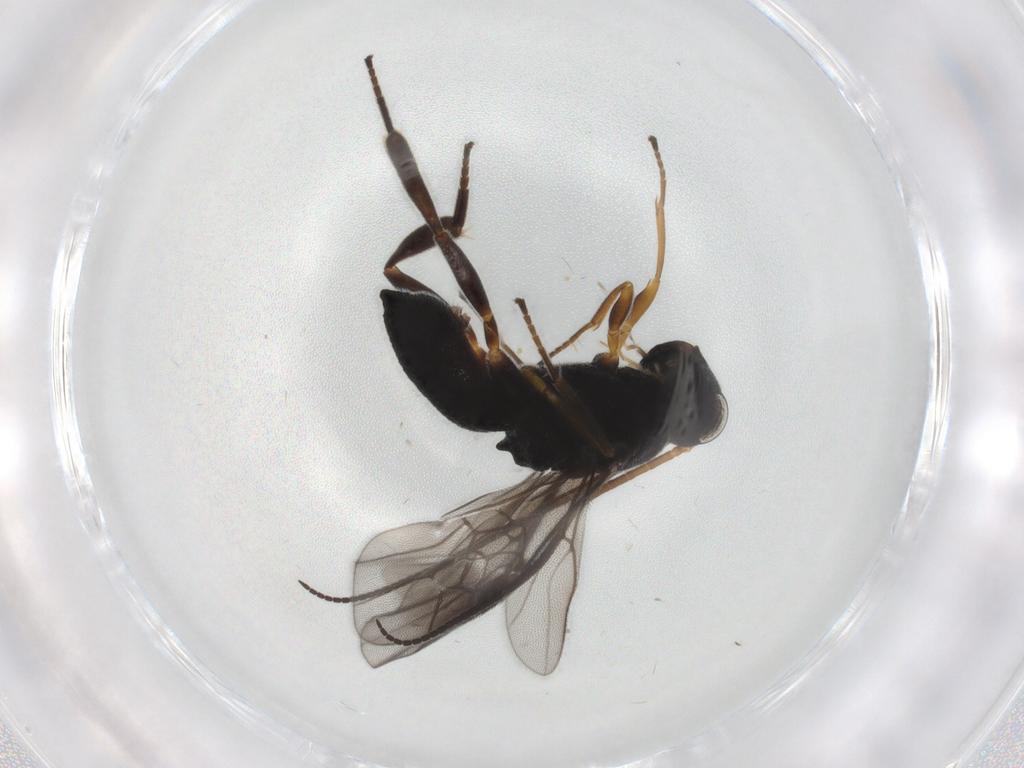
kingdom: Animalia
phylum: Arthropoda
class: Insecta
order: Hymenoptera
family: Braconidae
